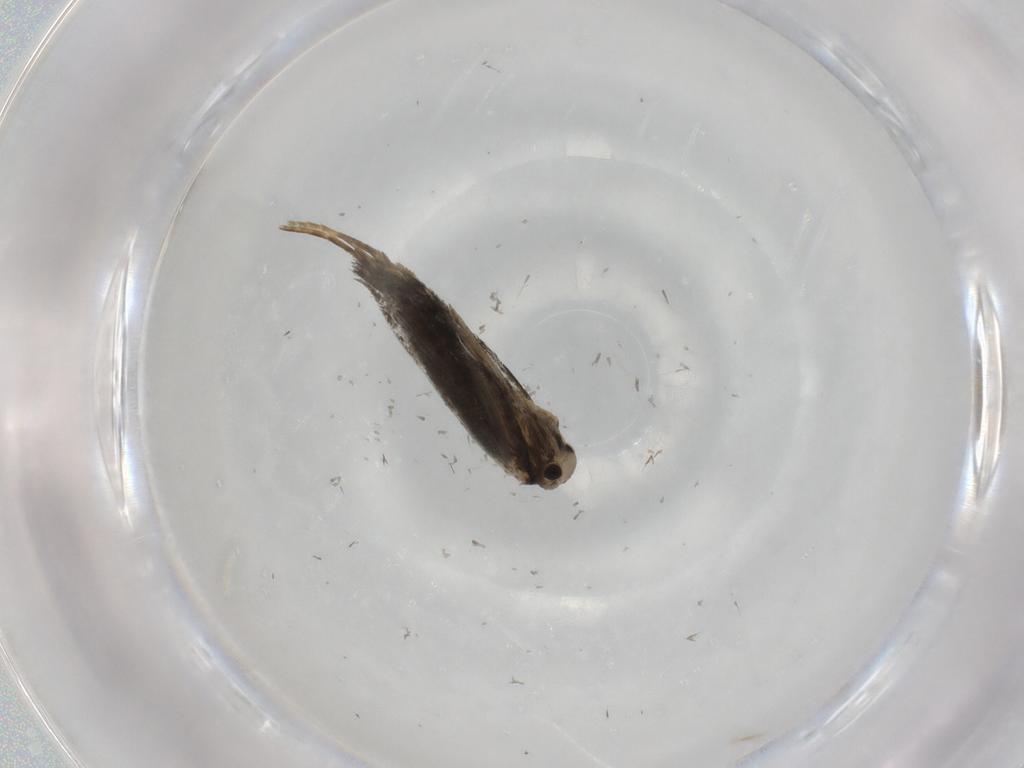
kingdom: Animalia
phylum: Arthropoda
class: Insecta
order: Lepidoptera
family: Psychidae
